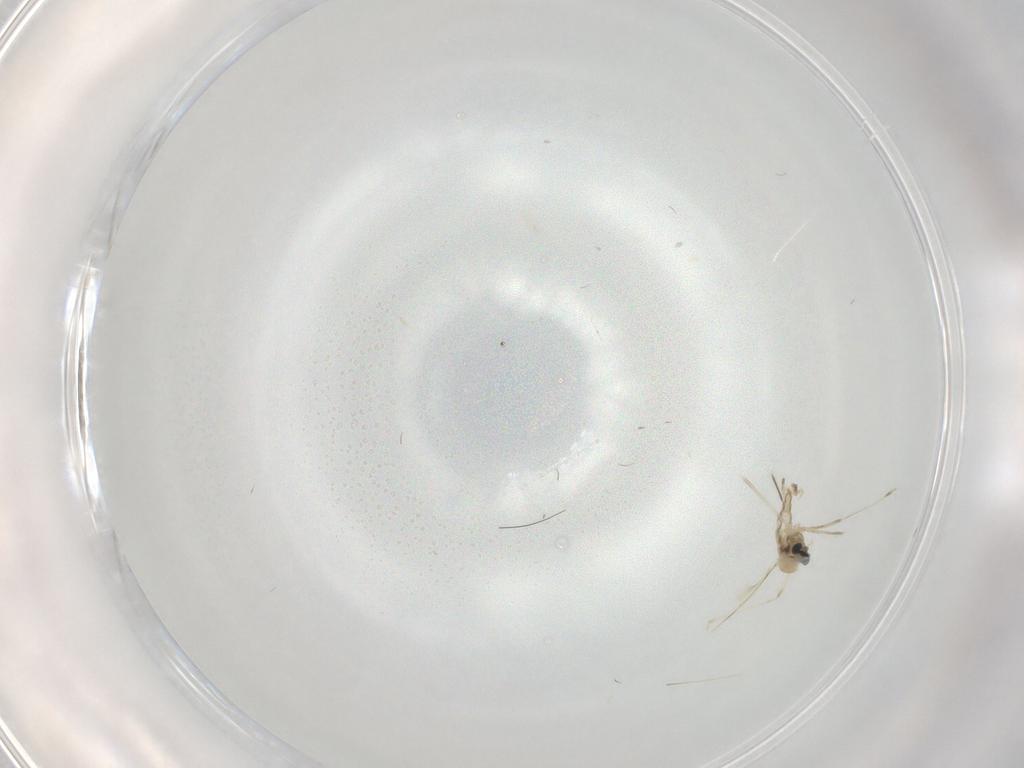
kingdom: Animalia
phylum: Arthropoda
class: Insecta
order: Diptera
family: Cecidomyiidae
